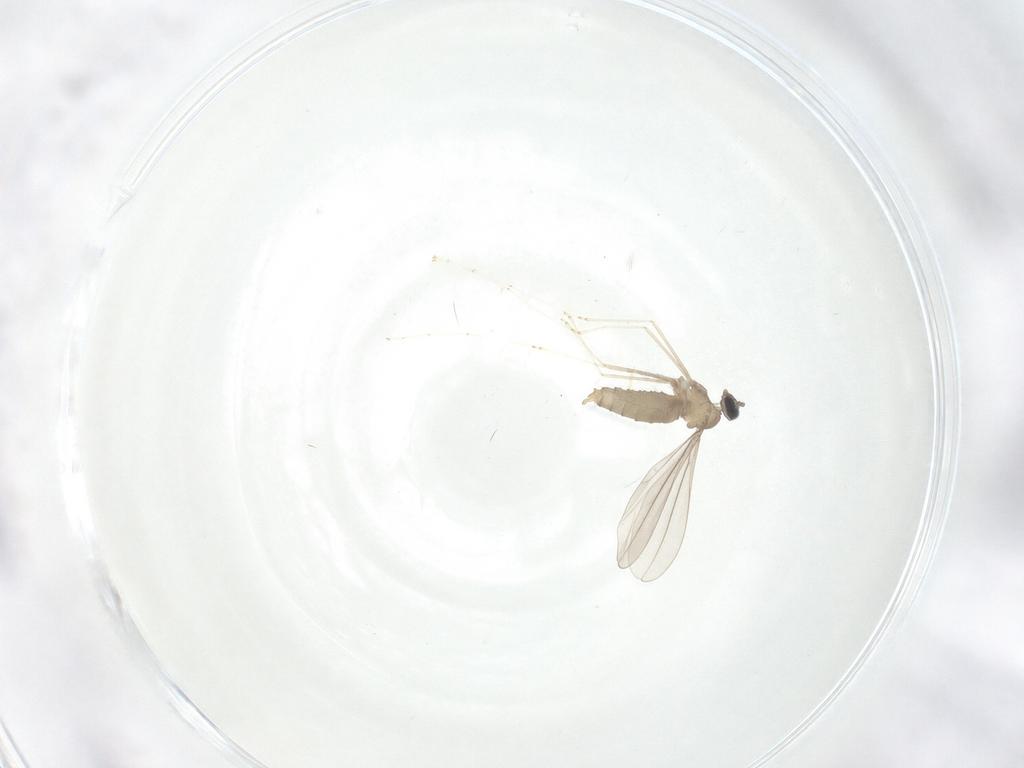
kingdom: Animalia
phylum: Arthropoda
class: Insecta
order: Diptera
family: Cecidomyiidae
